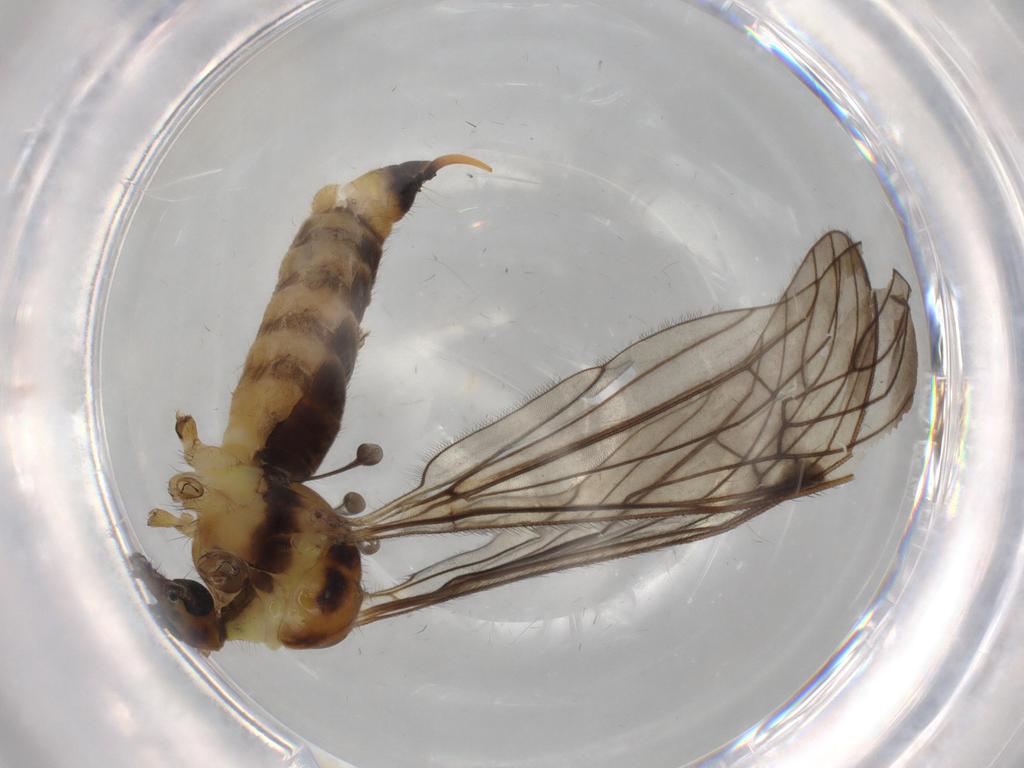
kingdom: Animalia
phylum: Arthropoda
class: Insecta
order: Diptera
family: Limoniidae
